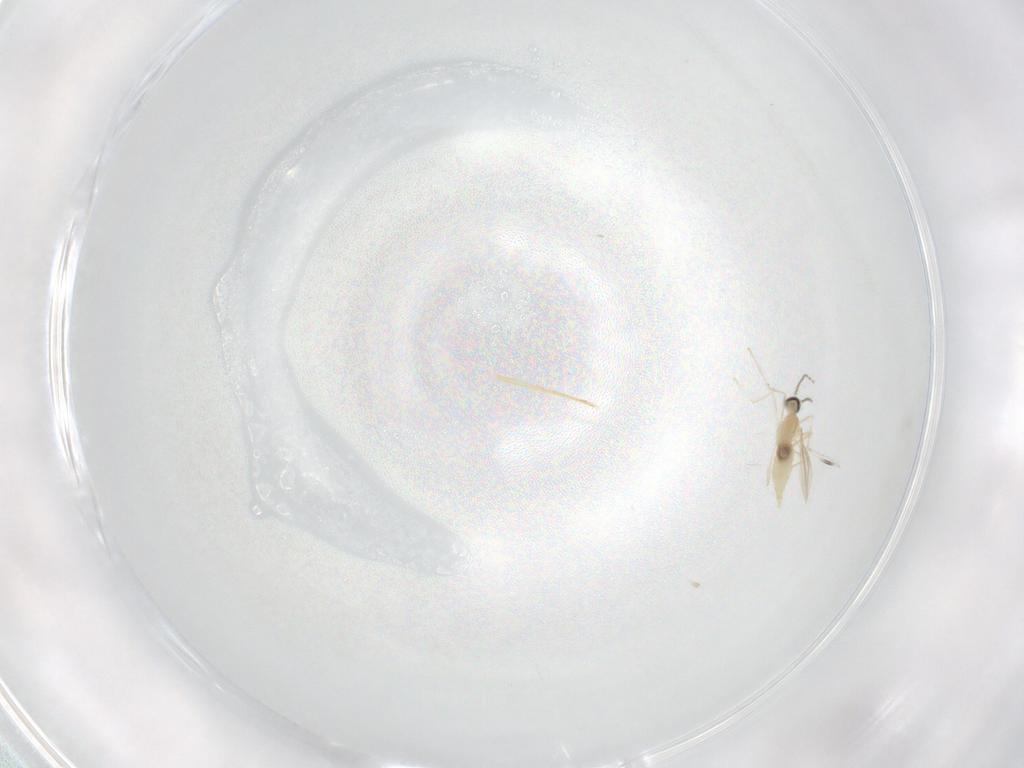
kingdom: Animalia
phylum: Arthropoda
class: Insecta
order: Diptera
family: Cecidomyiidae
